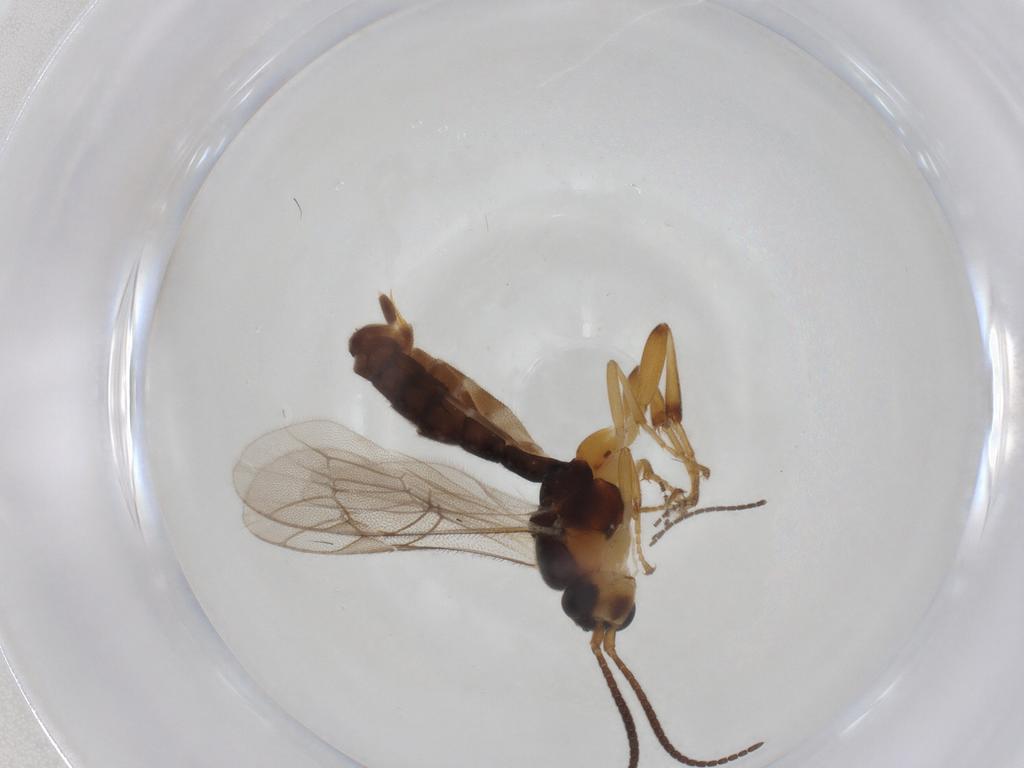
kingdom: Animalia
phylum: Arthropoda
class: Insecta
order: Hymenoptera
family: Ichneumonidae
